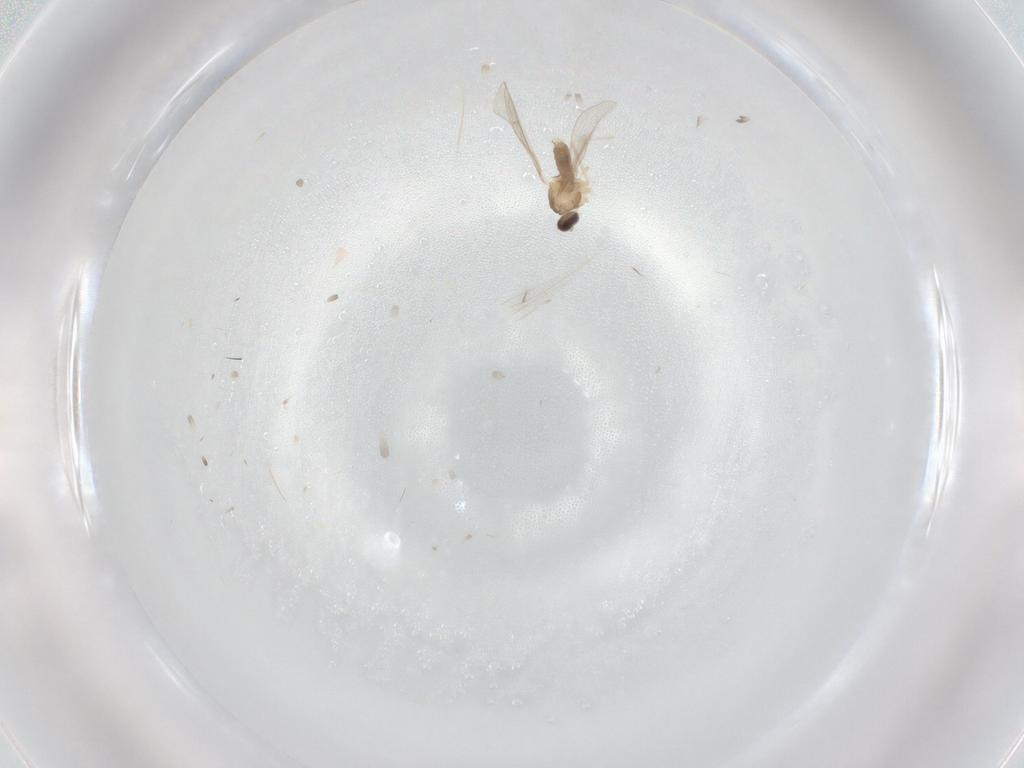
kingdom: Animalia
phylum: Arthropoda
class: Insecta
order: Diptera
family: Cecidomyiidae
